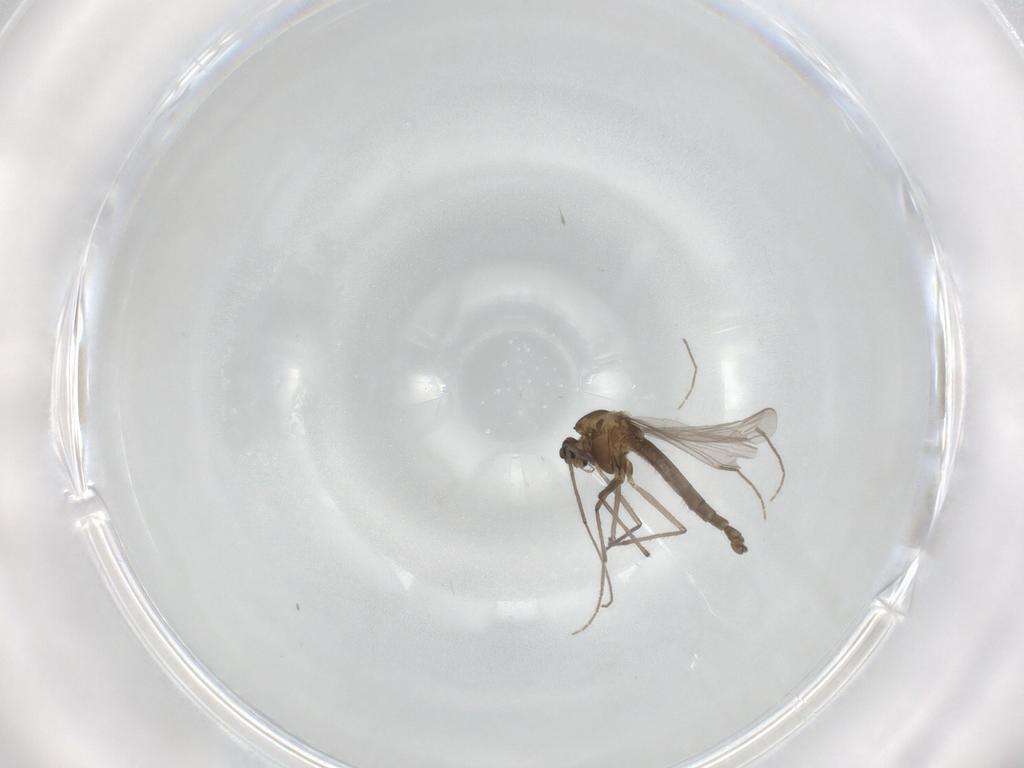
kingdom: Animalia
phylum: Arthropoda
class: Insecta
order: Diptera
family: Chironomidae
